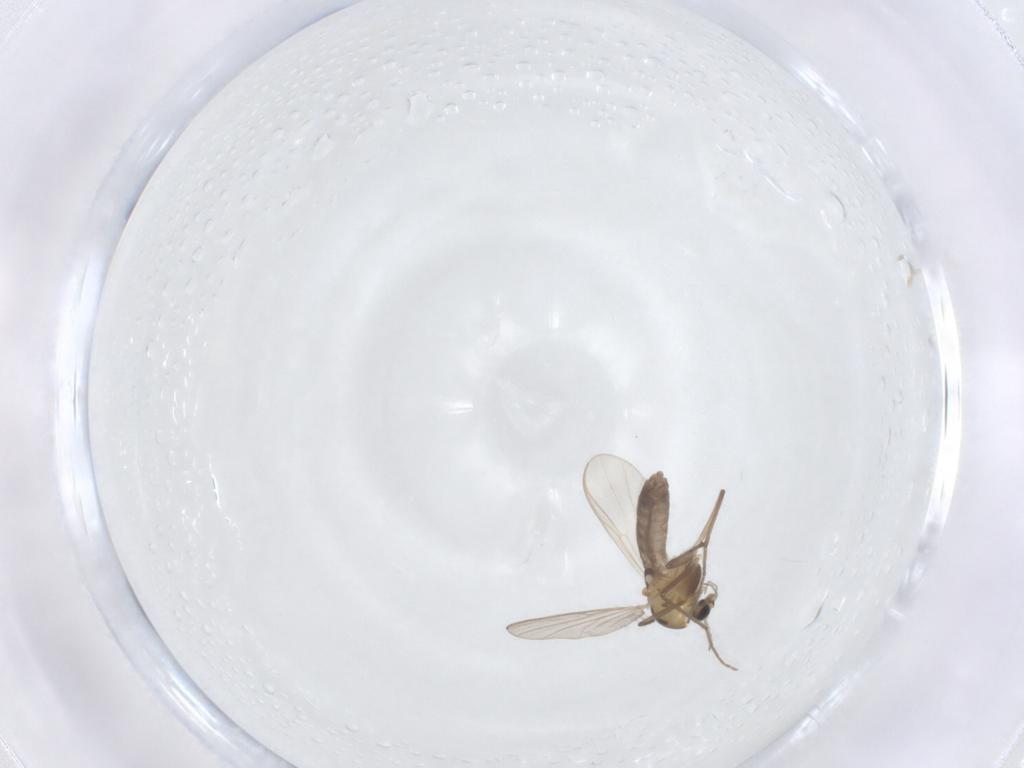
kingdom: Animalia
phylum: Arthropoda
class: Insecta
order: Diptera
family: Chironomidae
